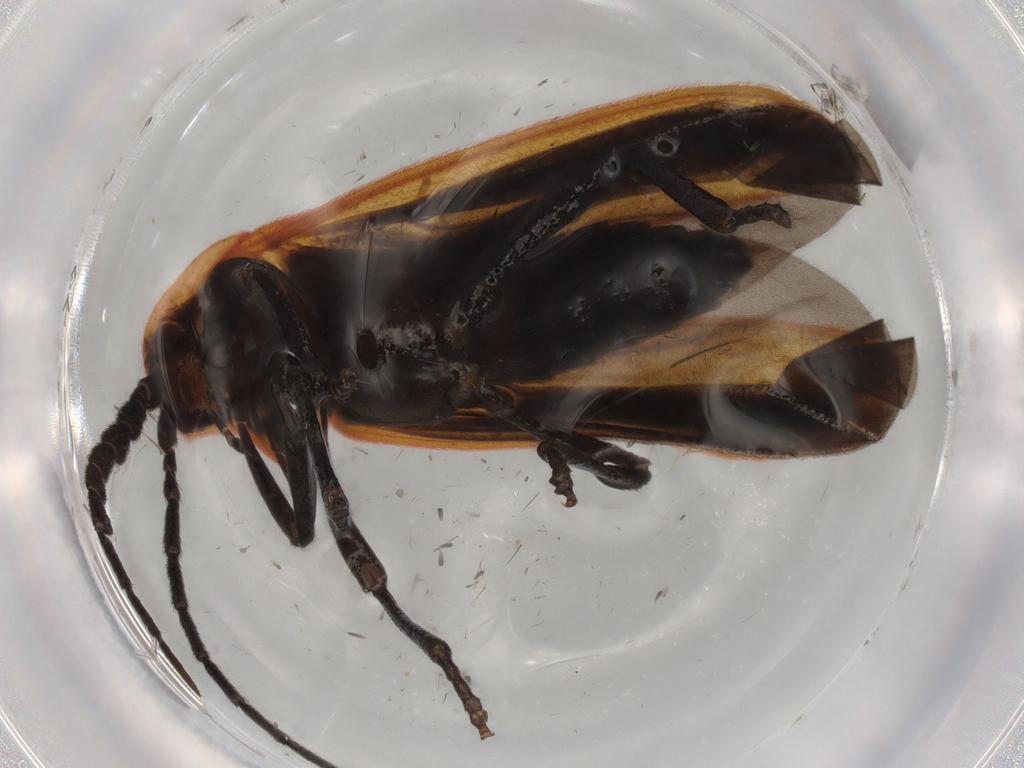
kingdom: Animalia
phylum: Arthropoda
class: Insecta
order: Coleoptera
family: Lycidae
